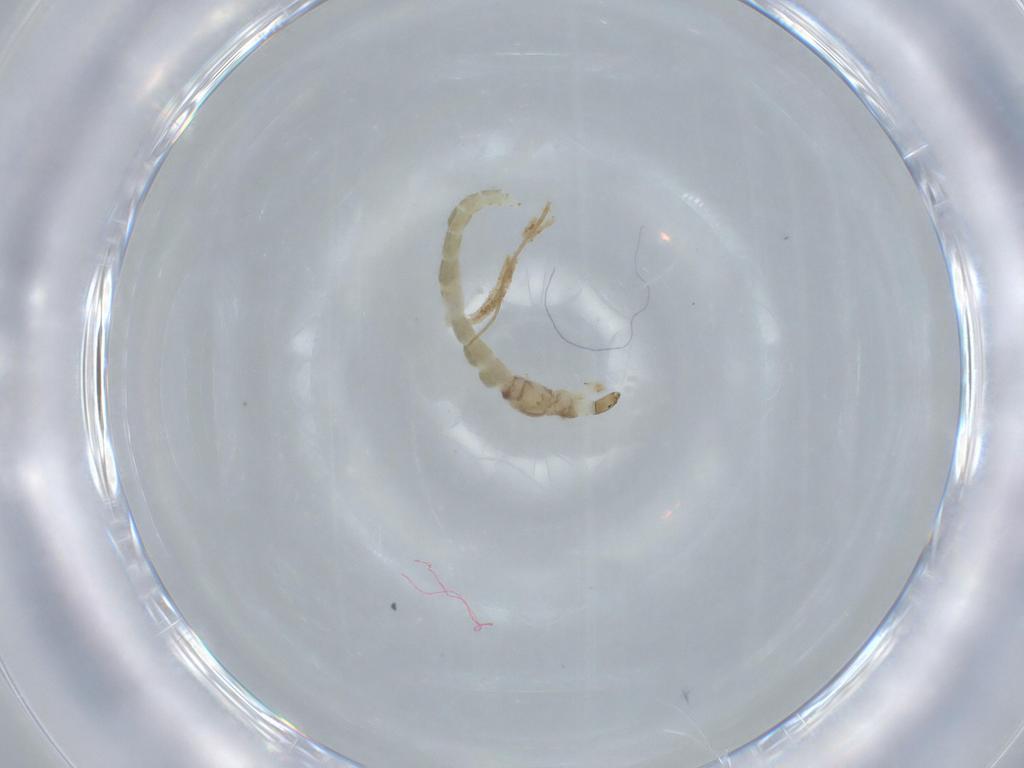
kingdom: Animalia
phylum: Arthropoda
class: Insecta
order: Diptera
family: Chironomidae
